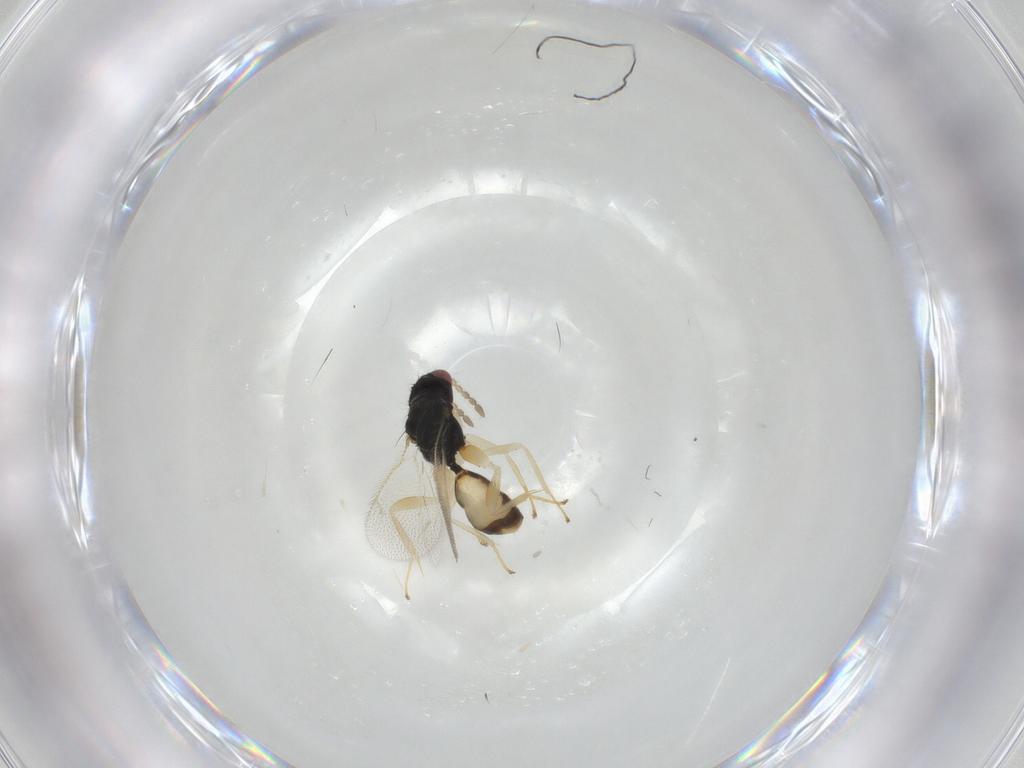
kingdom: Animalia
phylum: Arthropoda
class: Insecta
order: Hymenoptera
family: Eulophidae
